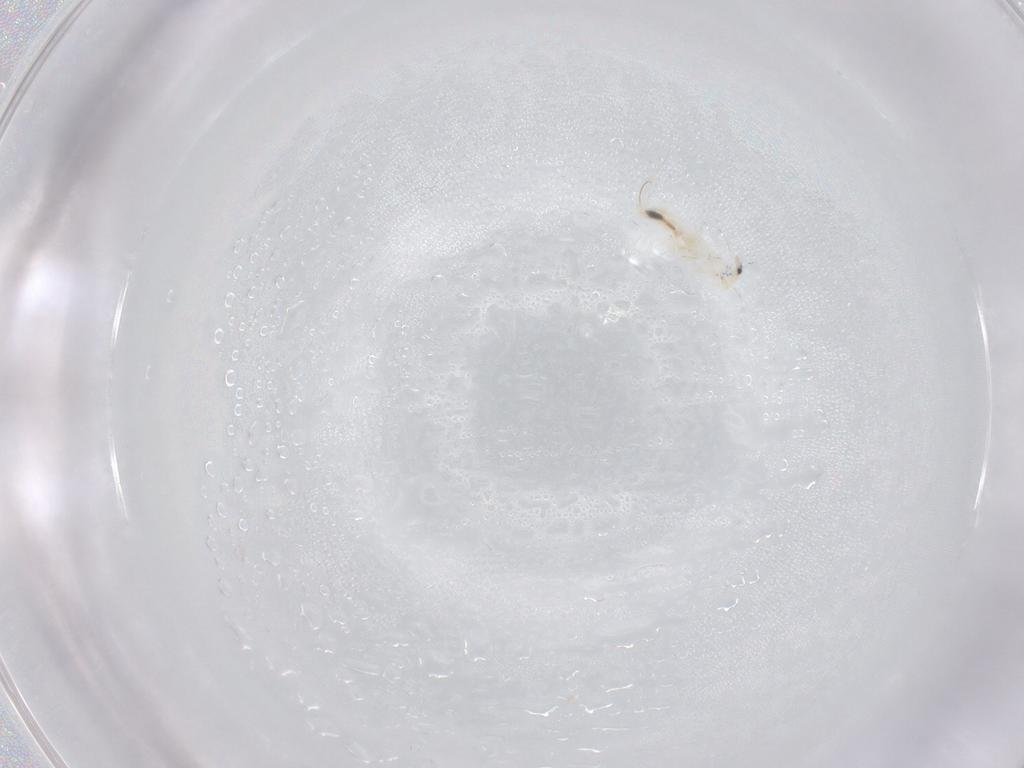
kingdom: Animalia
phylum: Arthropoda
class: Collembola
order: Entomobryomorpha
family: Entomobryidae
